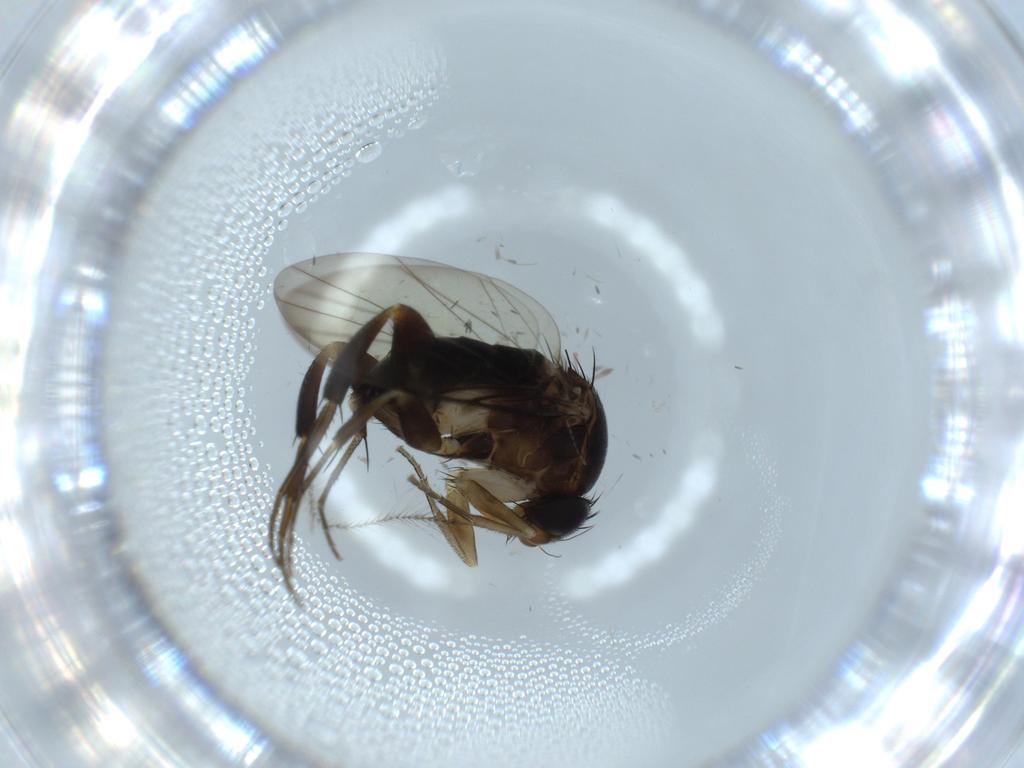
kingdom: Animalia
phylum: Arthropoda
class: Insecta
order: Diptera
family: Phoridae
